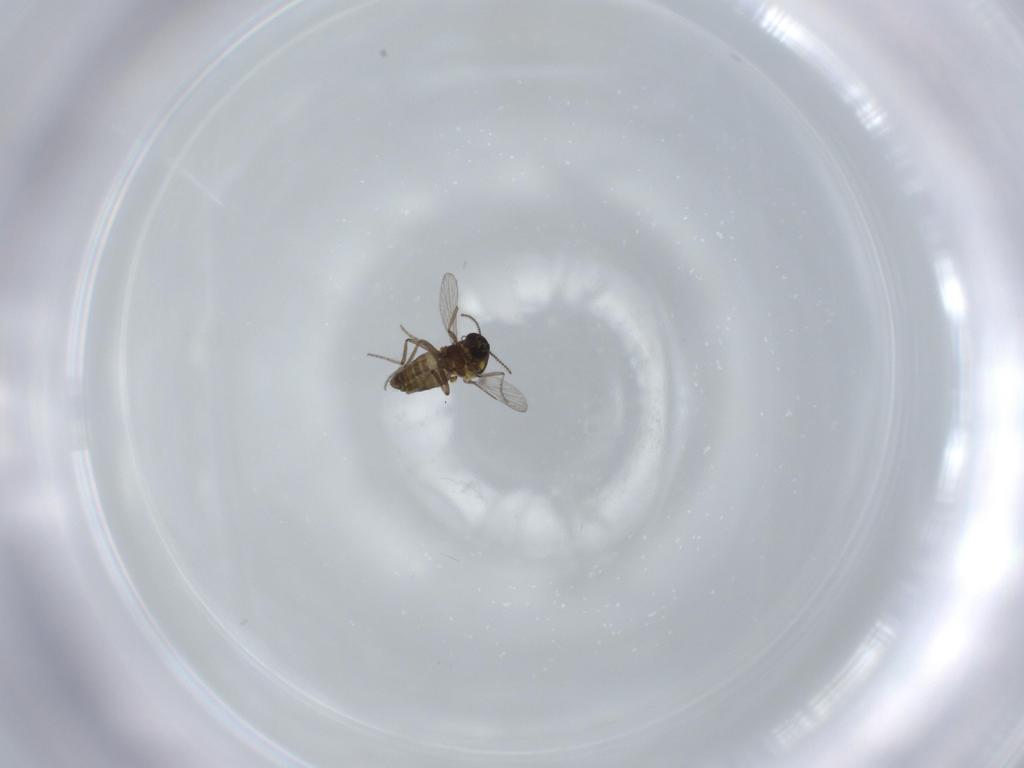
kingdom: Animalia
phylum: Arthropoda
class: Insecta
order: Diptera
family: Ceratopogonidae
